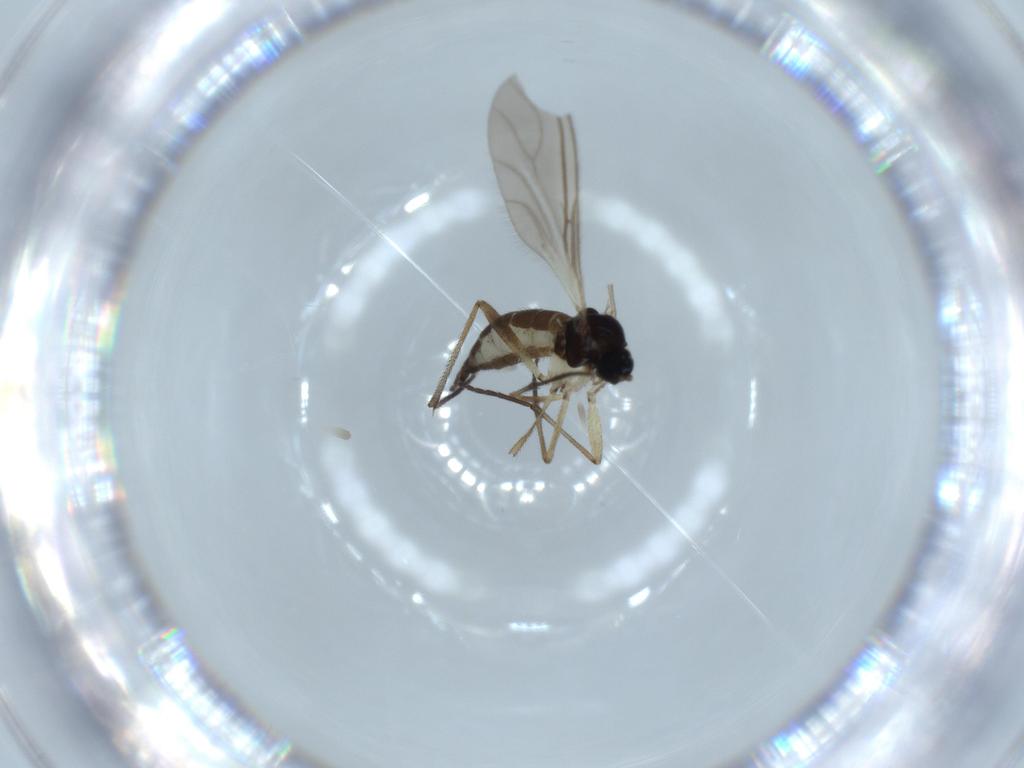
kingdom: Animalia
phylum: Arthropoda
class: Insecta
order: Diptera
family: Sciaridae
